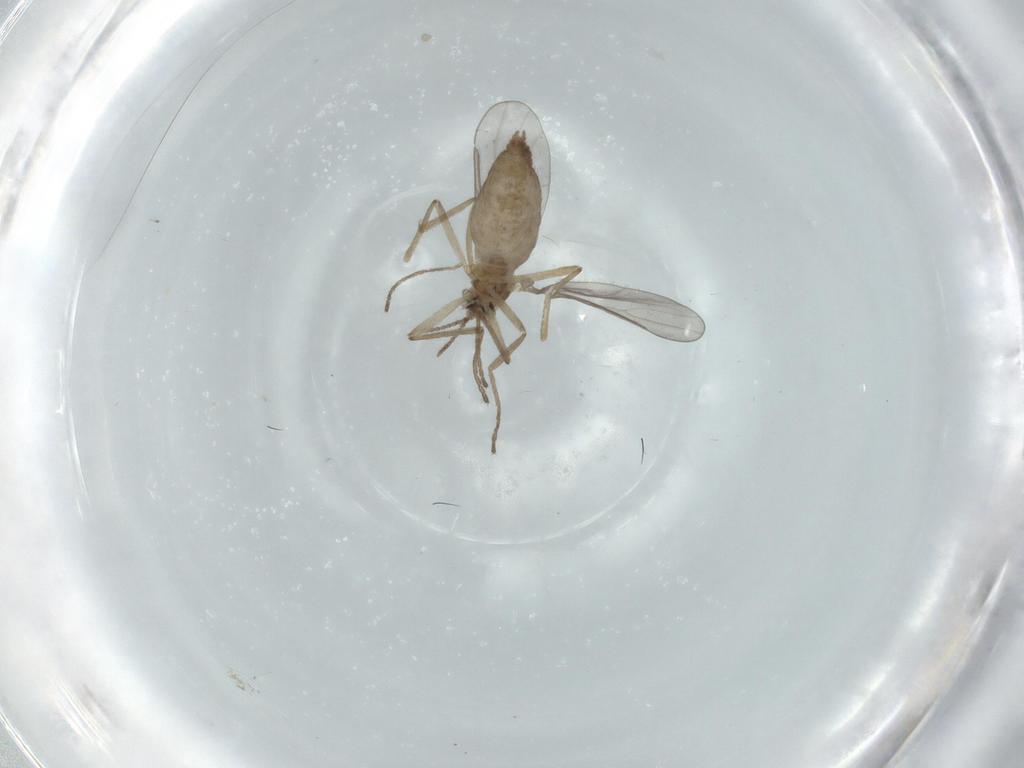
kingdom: Animalia
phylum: Arthropoda
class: Insecta
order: Diptera
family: Cecidomyiidae
